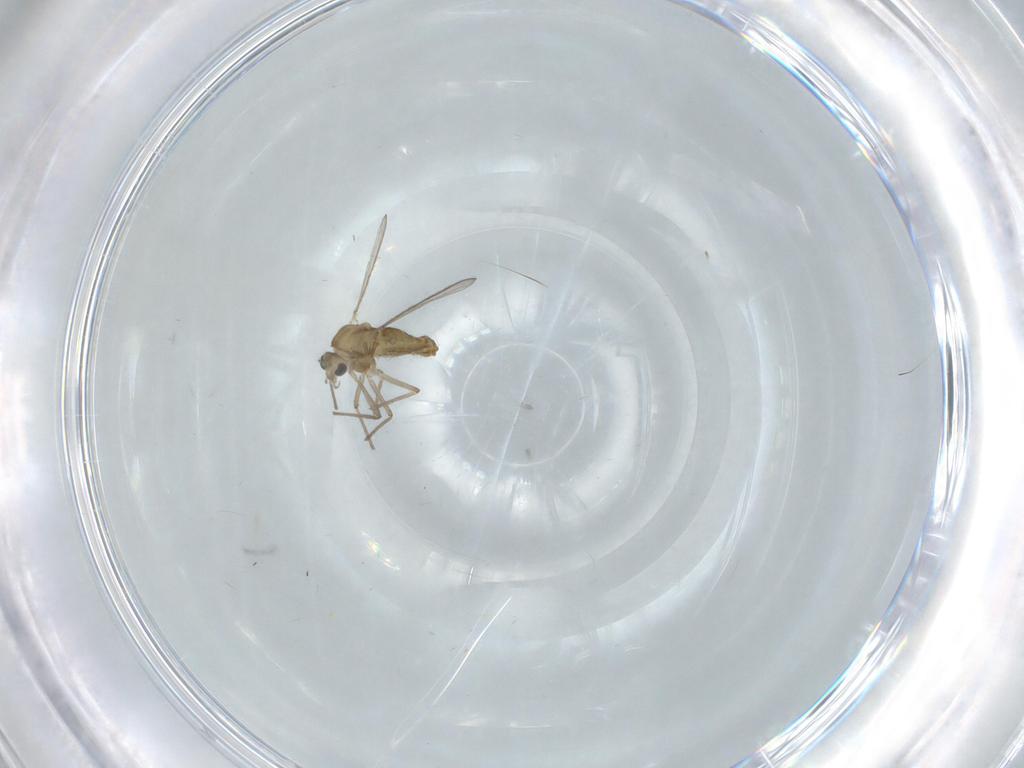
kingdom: Animalia
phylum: Arthropoda
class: Insecta
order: Diptera
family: Chironomidae
